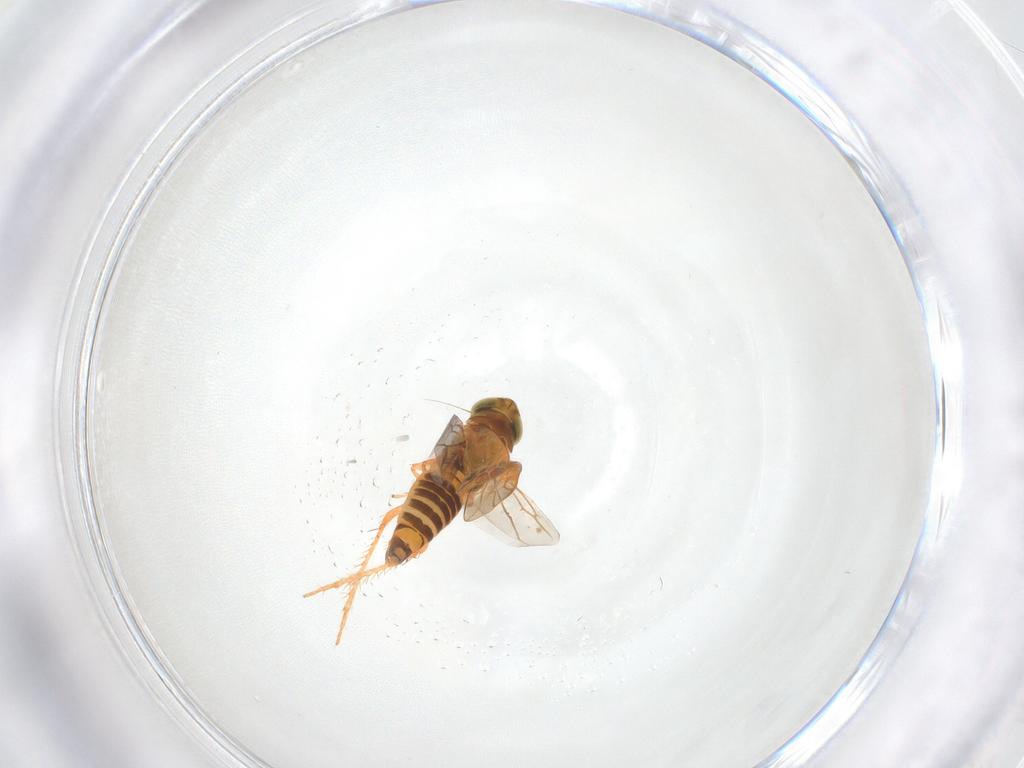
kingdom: Animalia
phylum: Arthropoda
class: Insecta
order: Hemiptera
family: Cicadellidae
